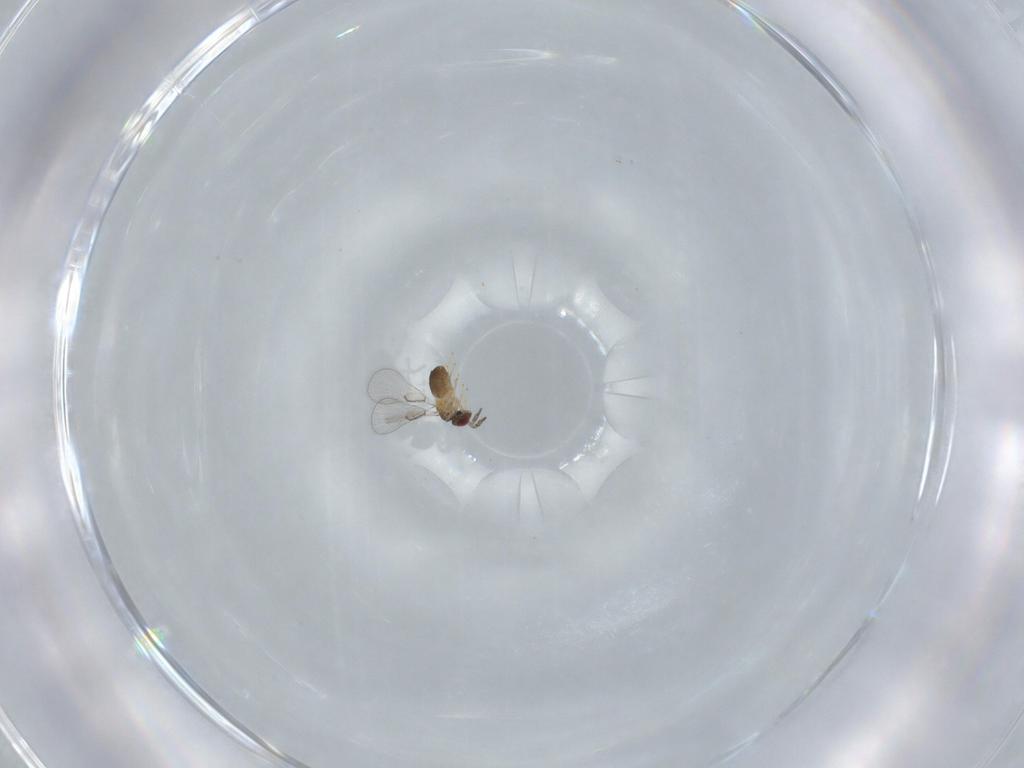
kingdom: Animalia
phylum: Arthropoda
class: Insecta
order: Hymenoptera
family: Trichogrammatidae
